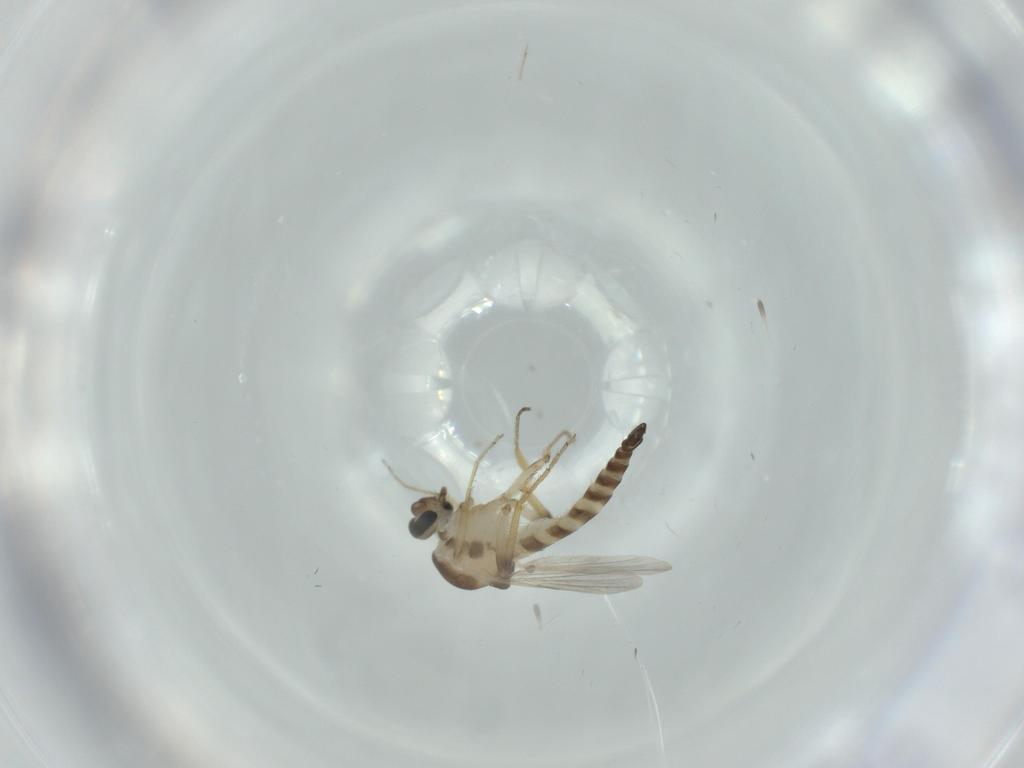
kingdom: Animalia
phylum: Arthropoda
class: Insecta
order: Diptera
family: Ceratopogonidae
